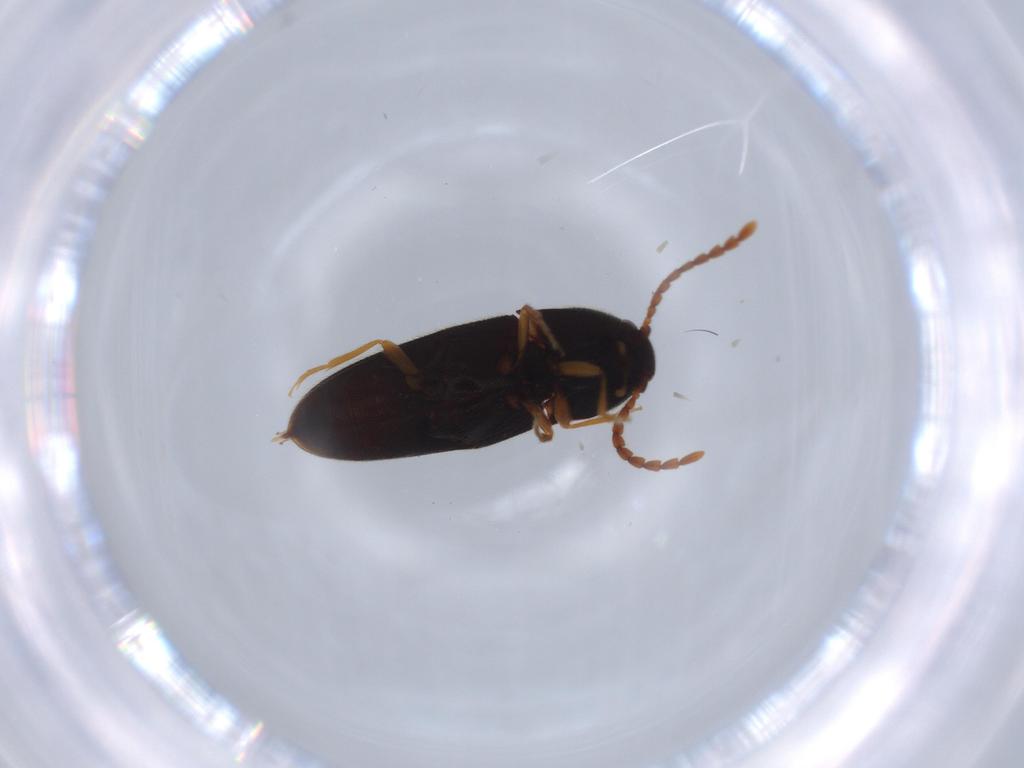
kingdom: Animalia
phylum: Arthropoda
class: Insecta
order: Coleoptera
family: Elateridae
